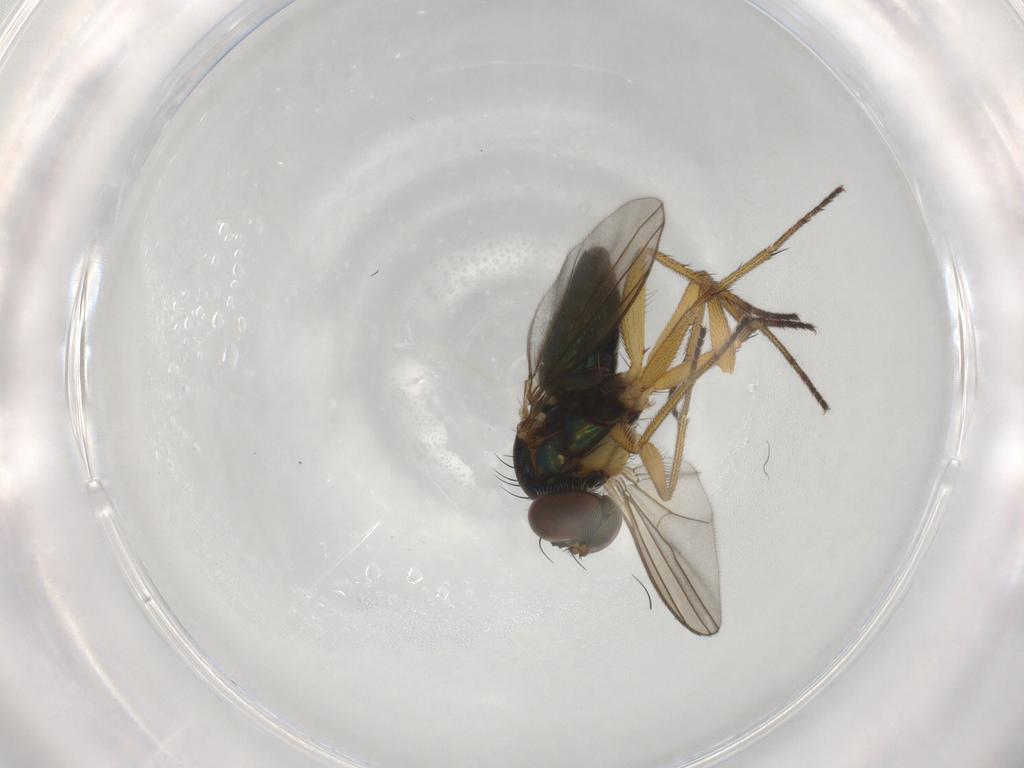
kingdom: Animalia
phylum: Arthropoda
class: Insecta
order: Diptera
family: Dolichopodidae
